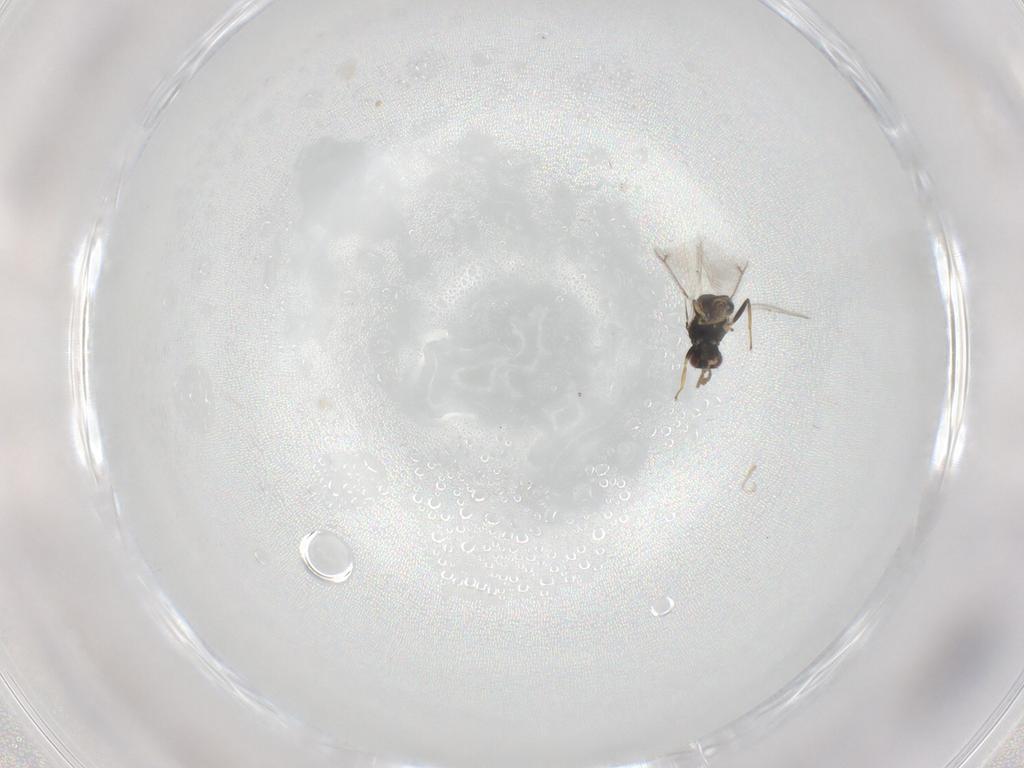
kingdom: Animalia
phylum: Arthropoda
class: Insecta
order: Hymenoptera
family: Eulophidae
